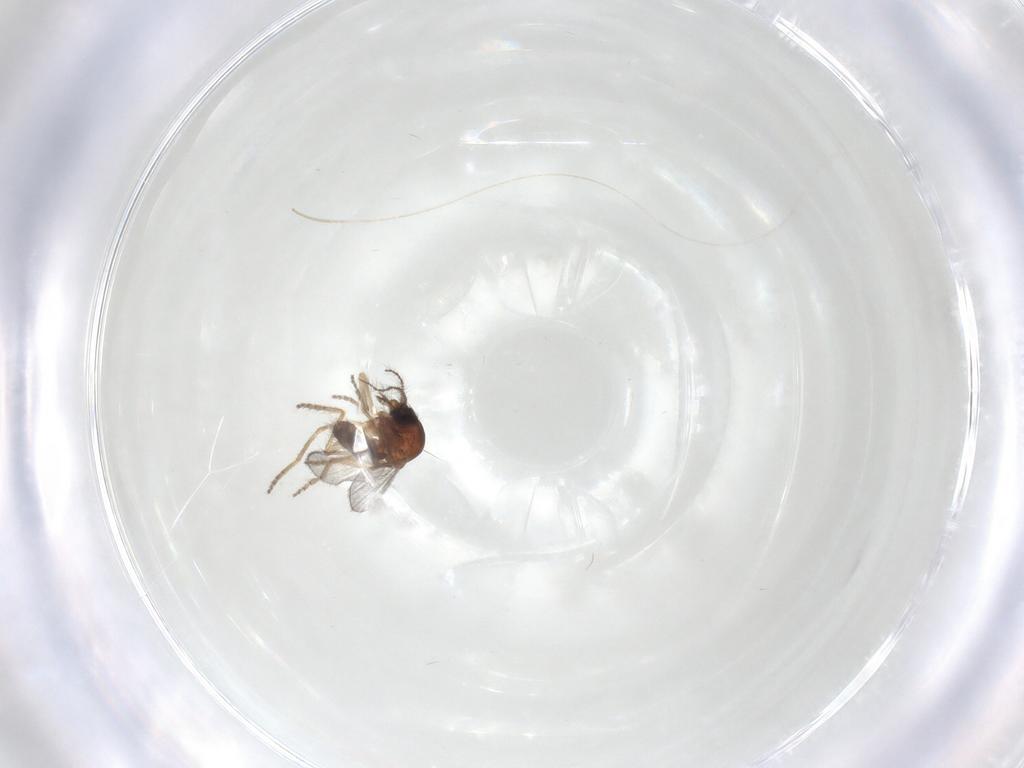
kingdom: Animalia
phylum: Arthropoda
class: Insecta
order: Diptera
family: Ceratopogonidae
